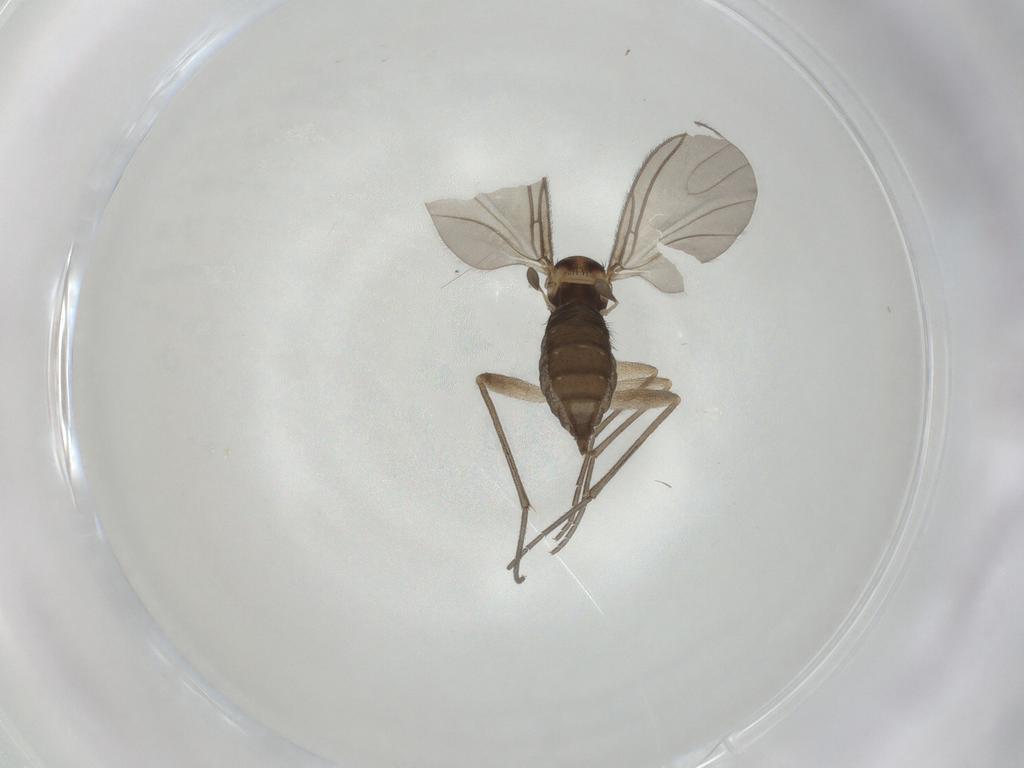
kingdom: Animalia
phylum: Arthropoda
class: Insecta
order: Diptera
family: Sciaridae
